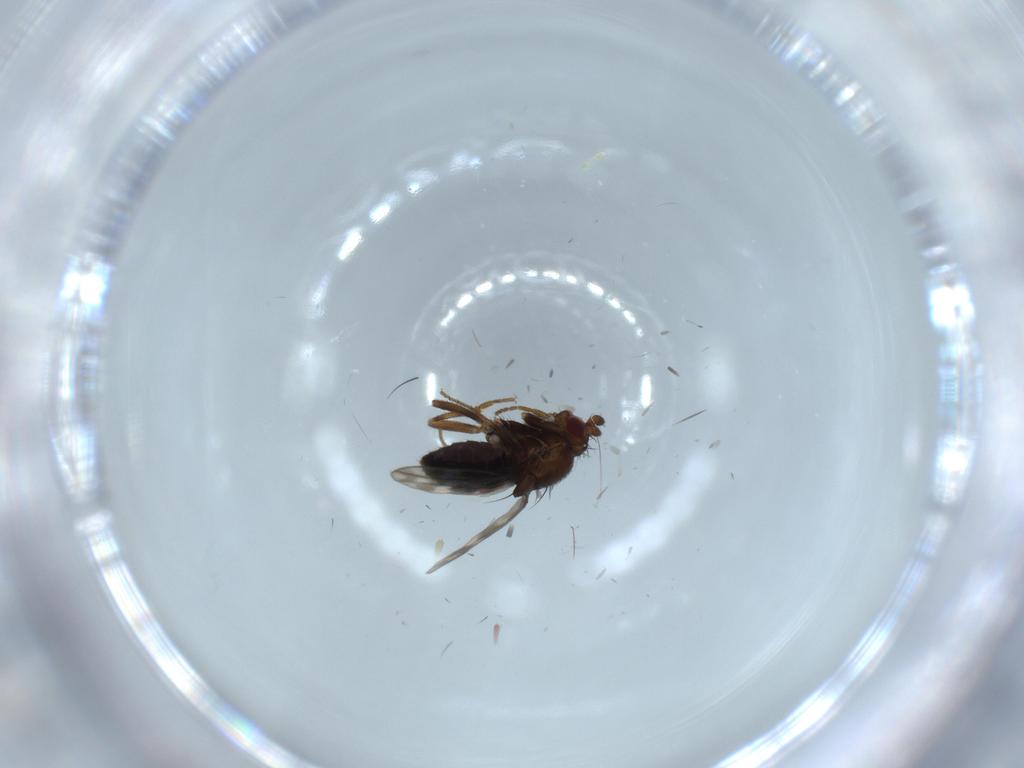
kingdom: Animalia
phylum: Arthropoda
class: Insecta
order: Diptera
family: Sphaeroceridae
